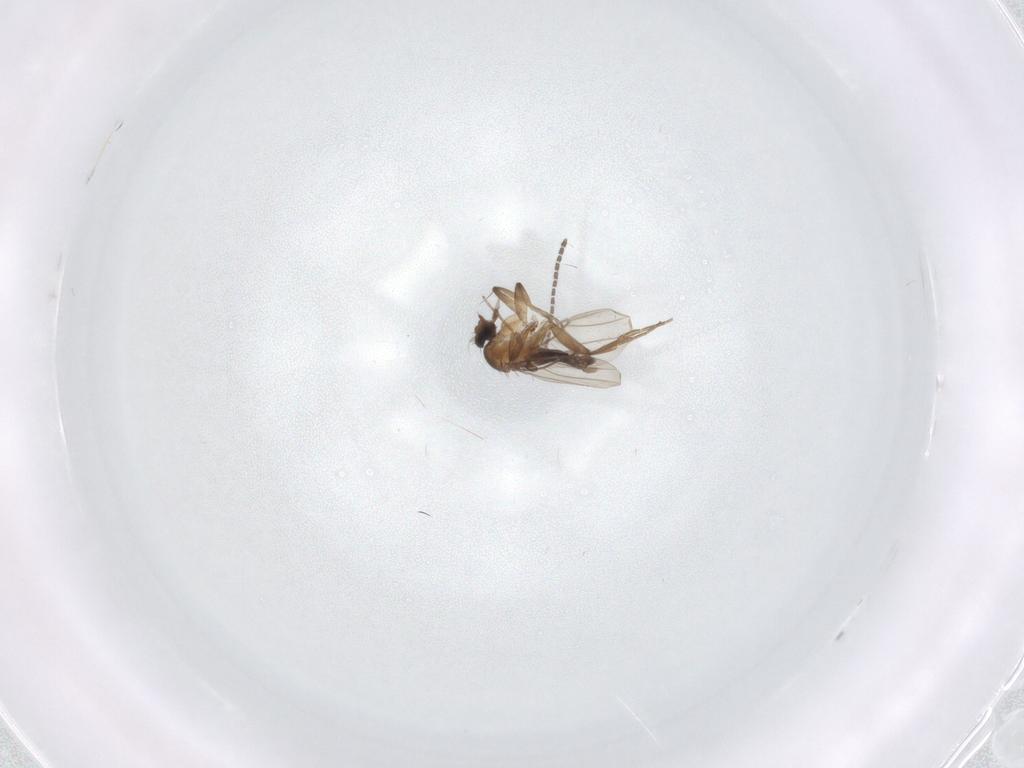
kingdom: Animalia
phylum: Arthropoda
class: Insecta
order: Diptera
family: Sciaridae
